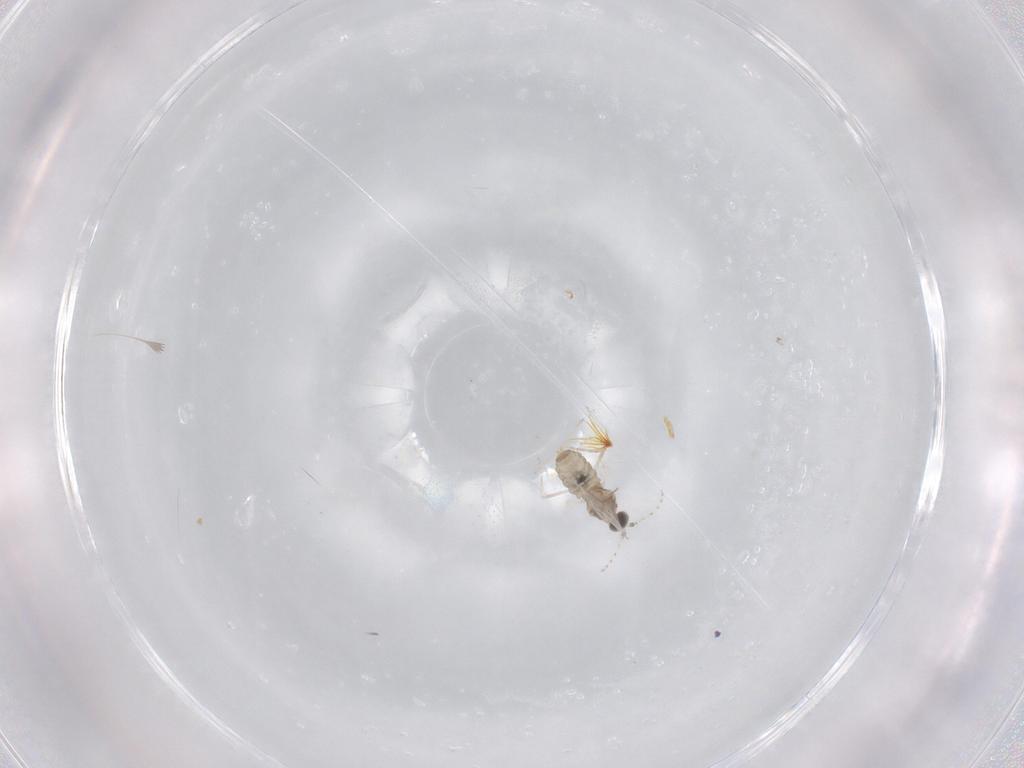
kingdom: Animalia
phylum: Arthropoda
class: Insecta
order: Diptera
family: Cecidomyiidae
